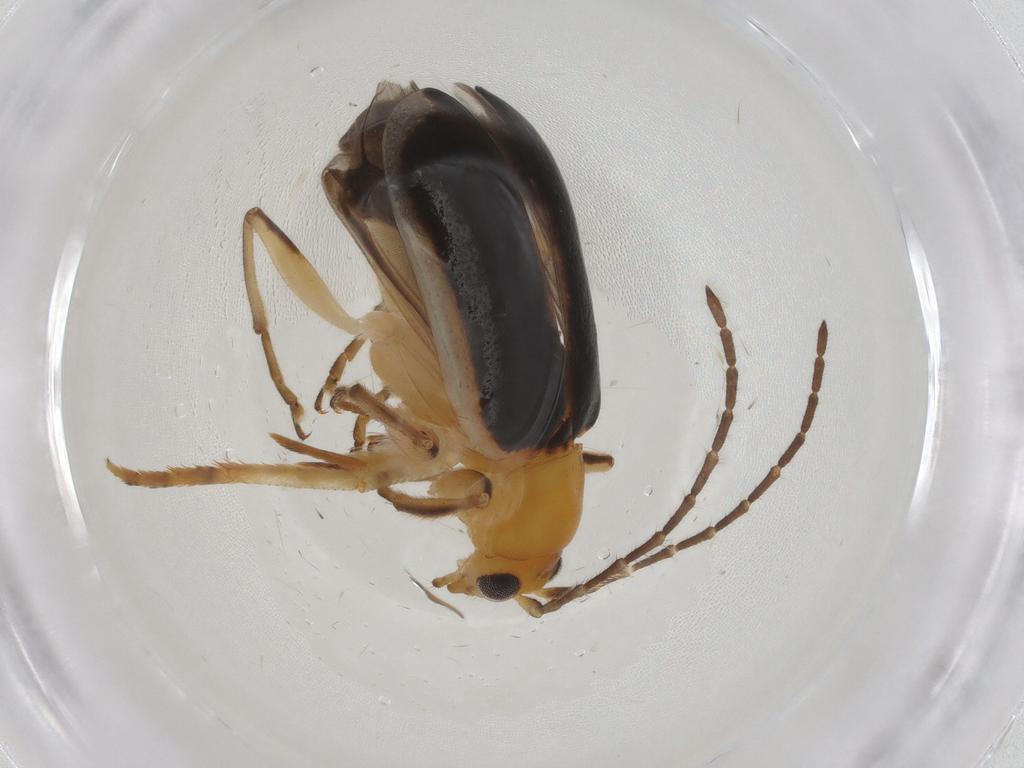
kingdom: Animalia
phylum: Arthropoda
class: Insecta
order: Coleoptera
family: Chrysomelidae
